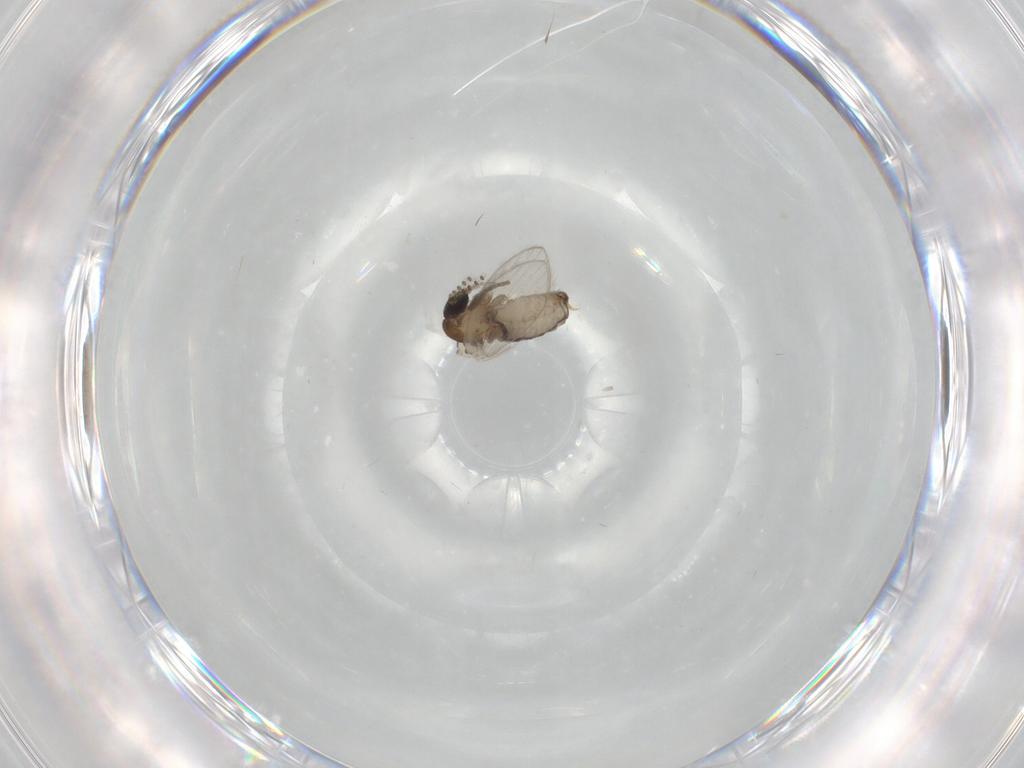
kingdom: Animalia
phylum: Arthropoda
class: Insecta
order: Diptera
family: Psychodidae
